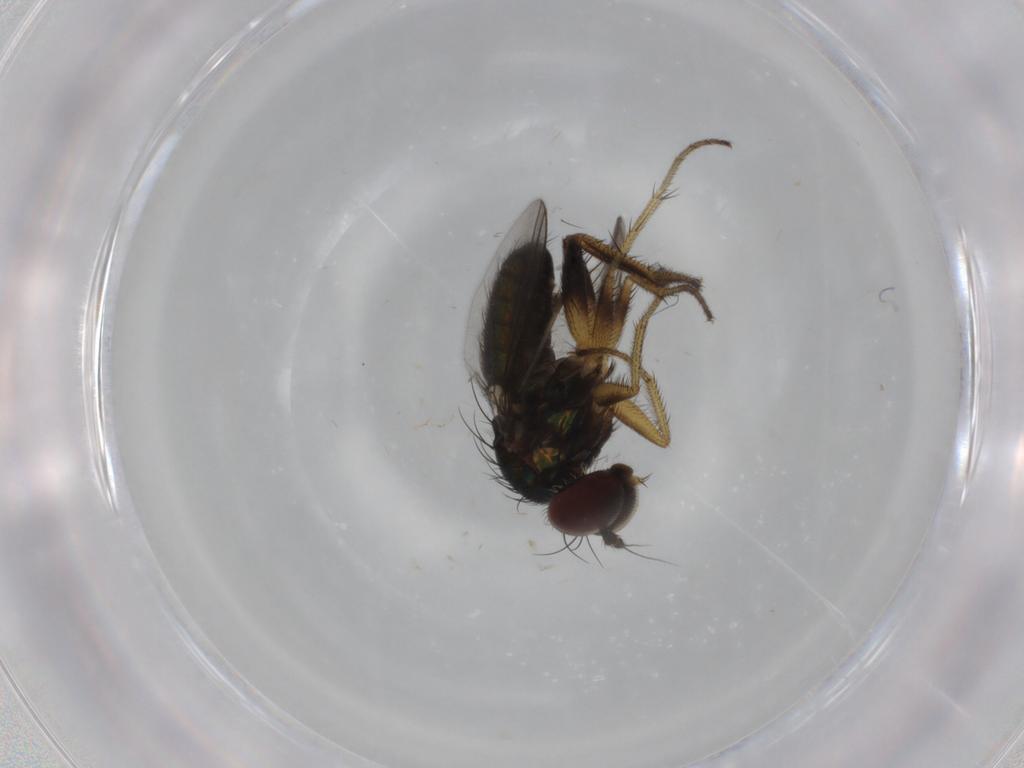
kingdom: Animalia
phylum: Arthropoda
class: Insecta
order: Diptera
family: Dolichopodidae
